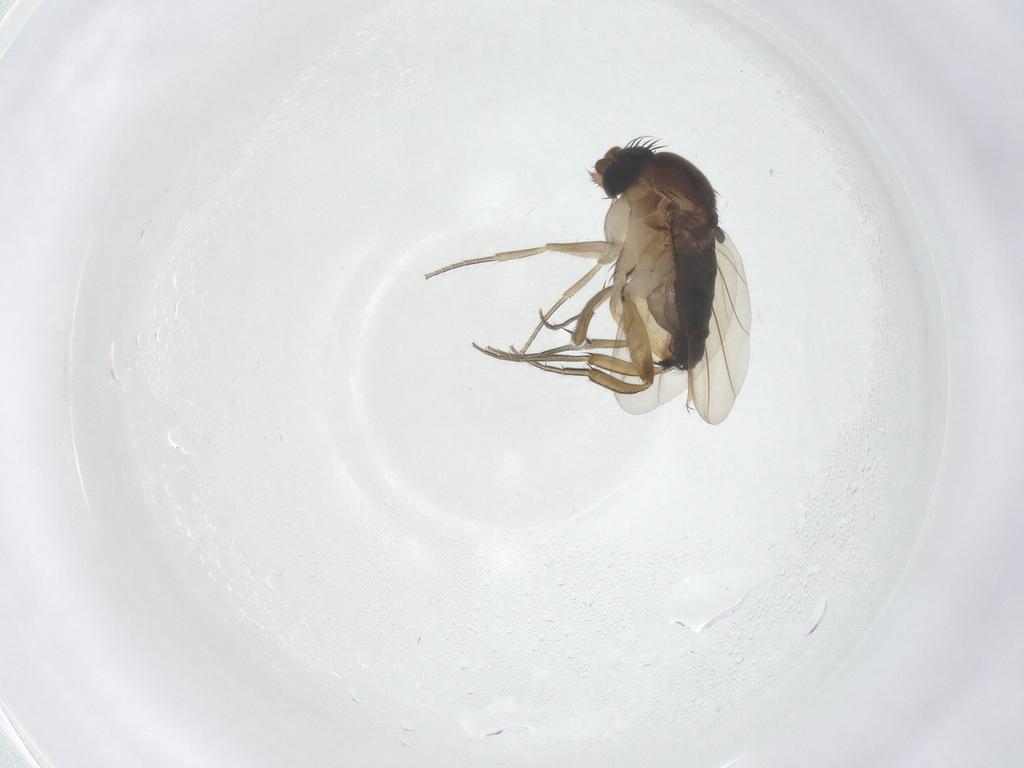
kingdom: Animalia
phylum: Arthropoda
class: Insecta
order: Diptera
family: Phoridae
